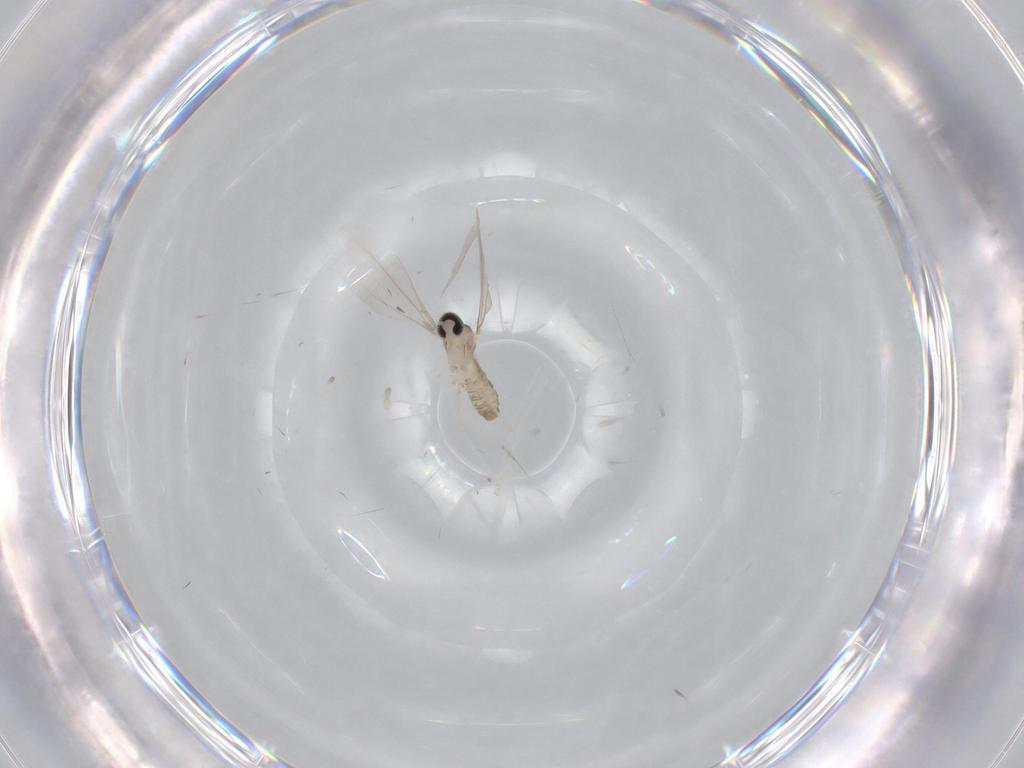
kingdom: Animalia
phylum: Arthropoda
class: Insecta
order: Diptera
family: Cecidomyiidae
